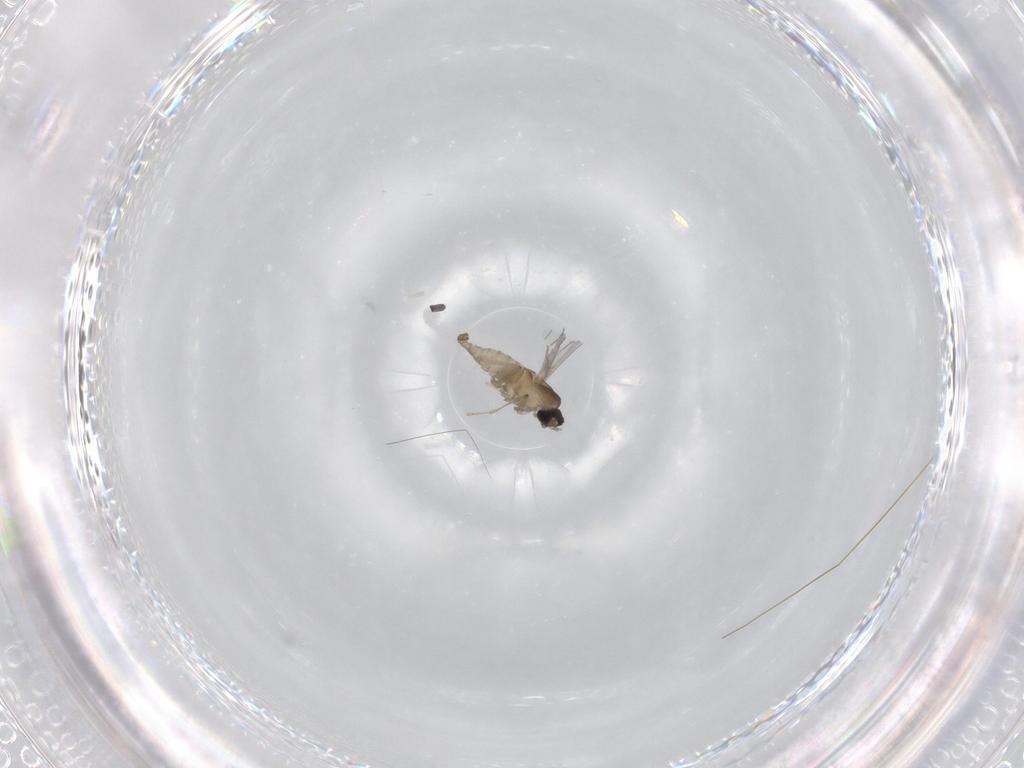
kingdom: Animalia
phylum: Arthropoda
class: Insecta
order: Diptera
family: Cecidomyiidae
